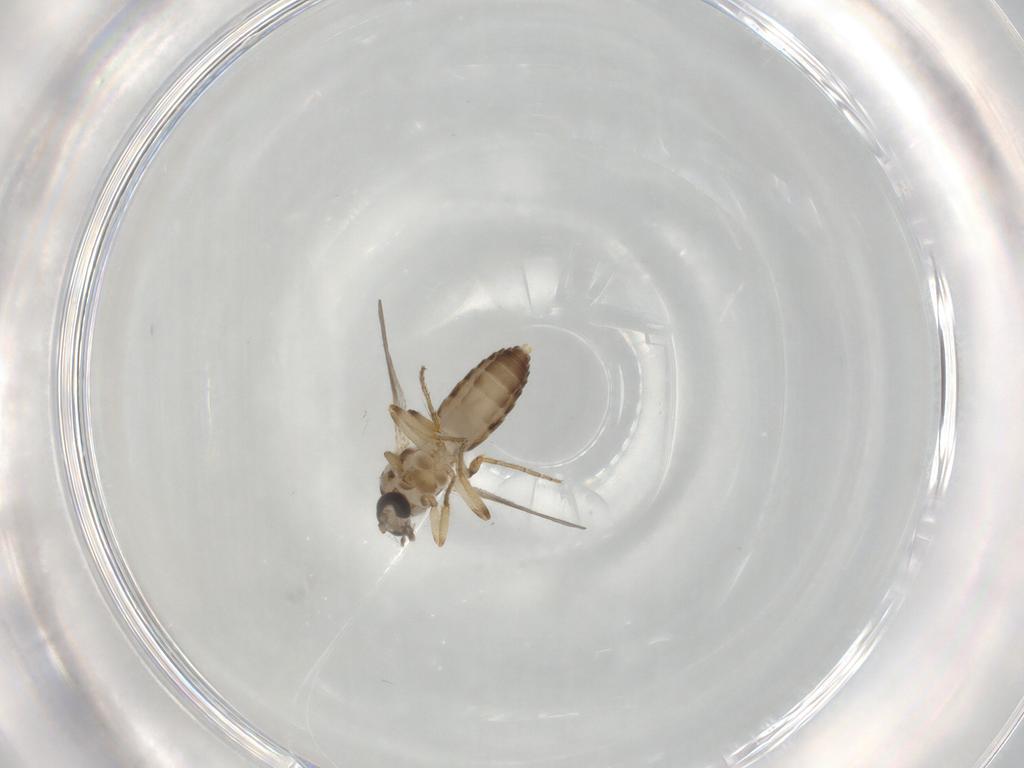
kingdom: Animalia
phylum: Arthropoda
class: Insecta
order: Diptera
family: Ceratopogonidae
